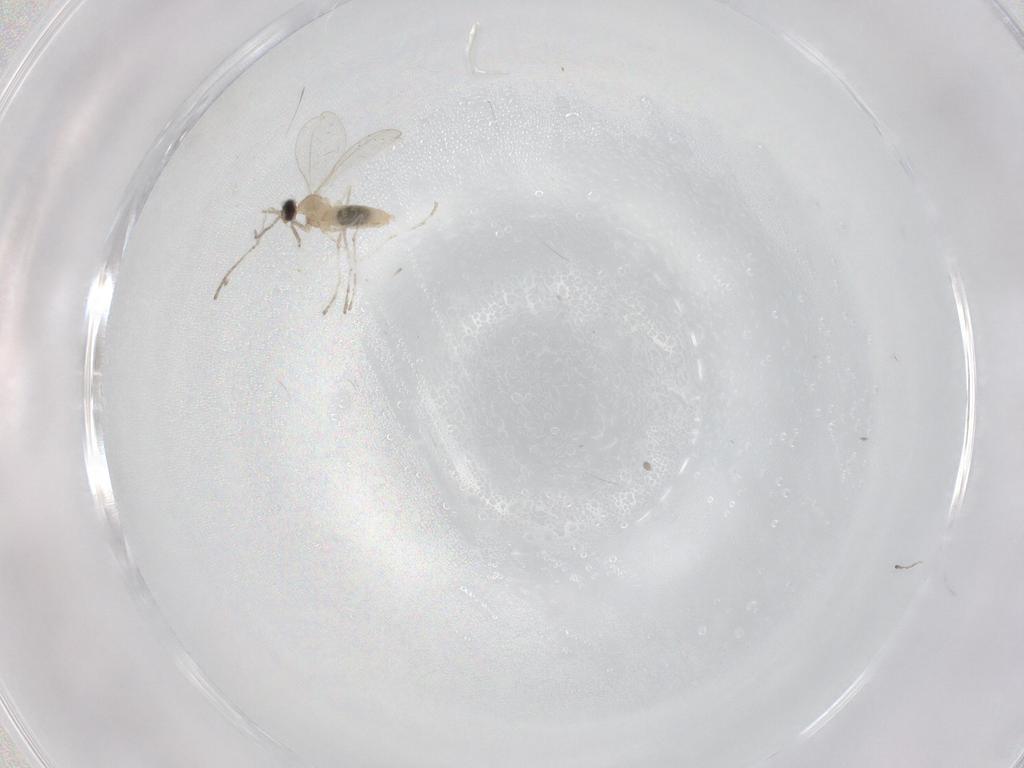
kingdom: Animalia
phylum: Arthropoda
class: Insecta
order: Diptera
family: Cecidomyiidae
